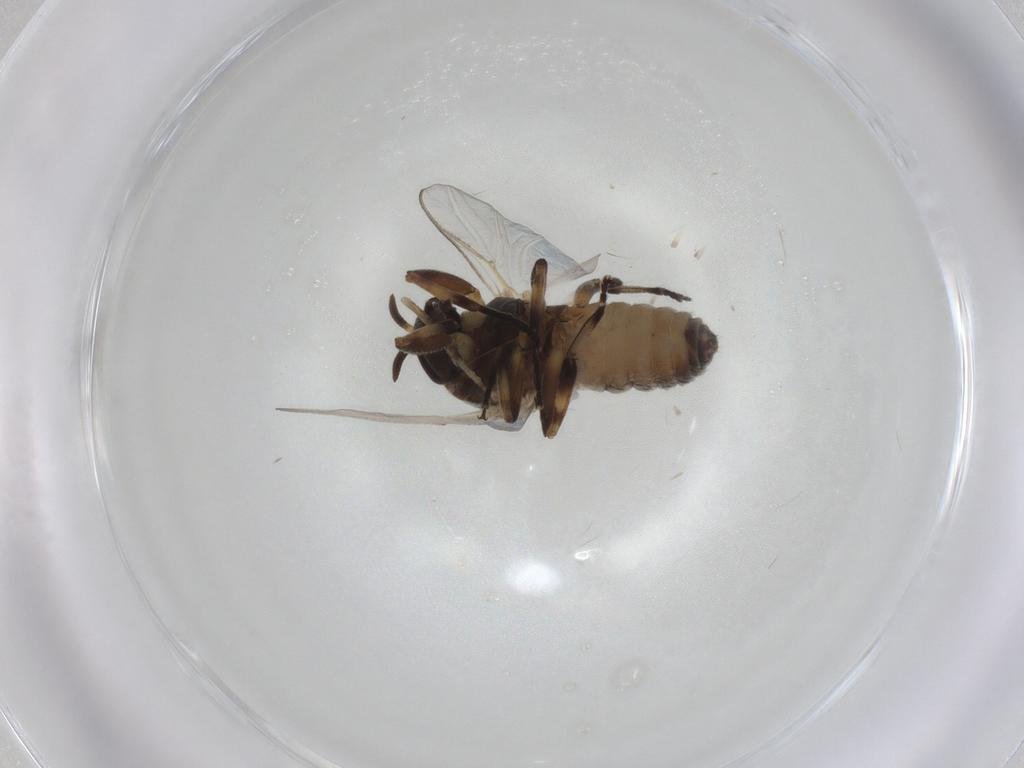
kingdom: Animalia
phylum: Arthropoda
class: Insecta
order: Diptera
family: Chironomidae
